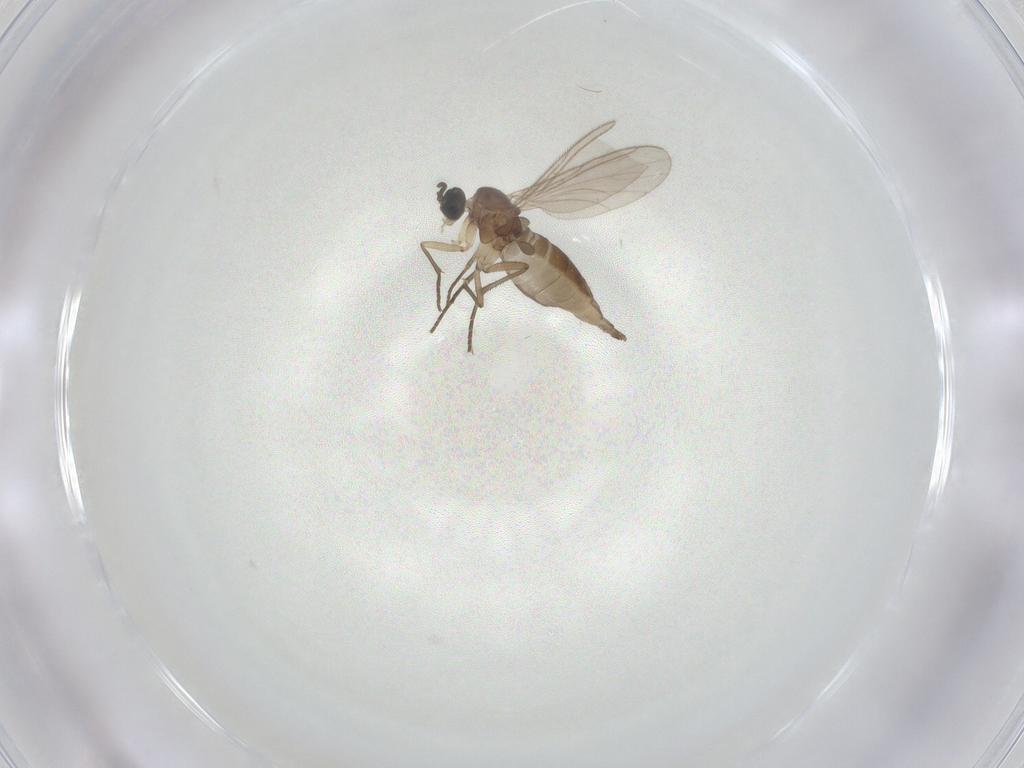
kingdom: Animalia
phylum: Arthropoda
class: Insecta
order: Diptera
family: Sciaridae
